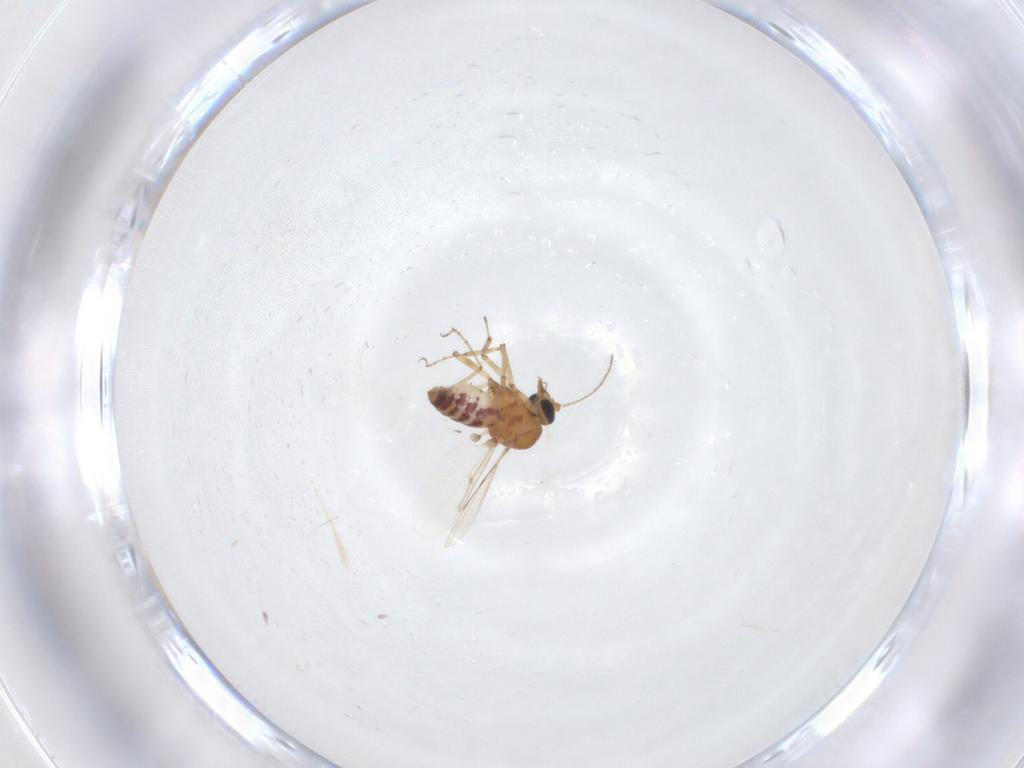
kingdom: Animalia
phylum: Arthropoda
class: Insecta
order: Diptera
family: Ceratopogonidae
